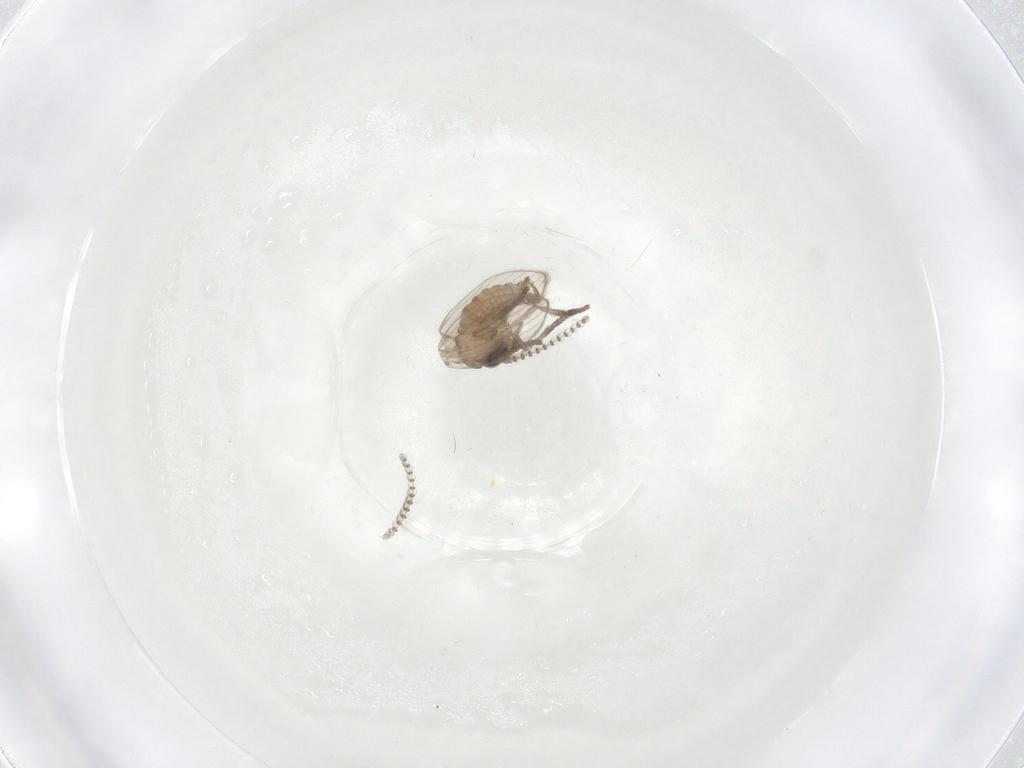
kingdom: Animalia
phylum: Arthropoda
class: Insecta
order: Diptera
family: Psychodidae
